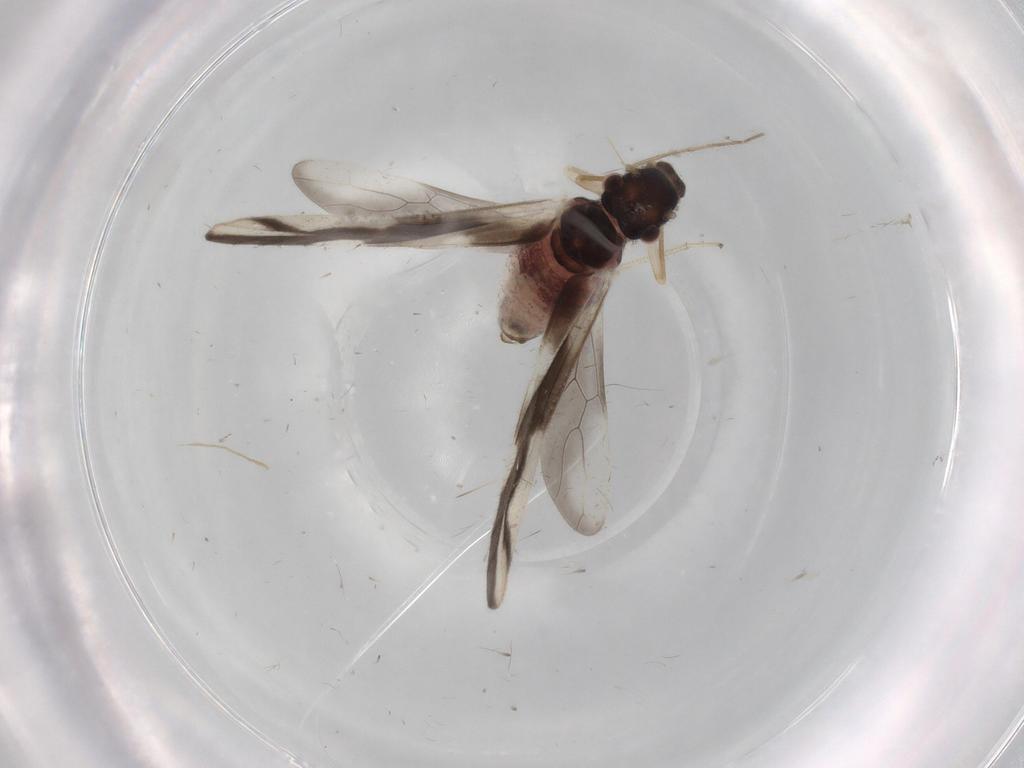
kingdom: Animalia
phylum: Arthropoda
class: Insecta
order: Psocodea
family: Caeciliusidae
